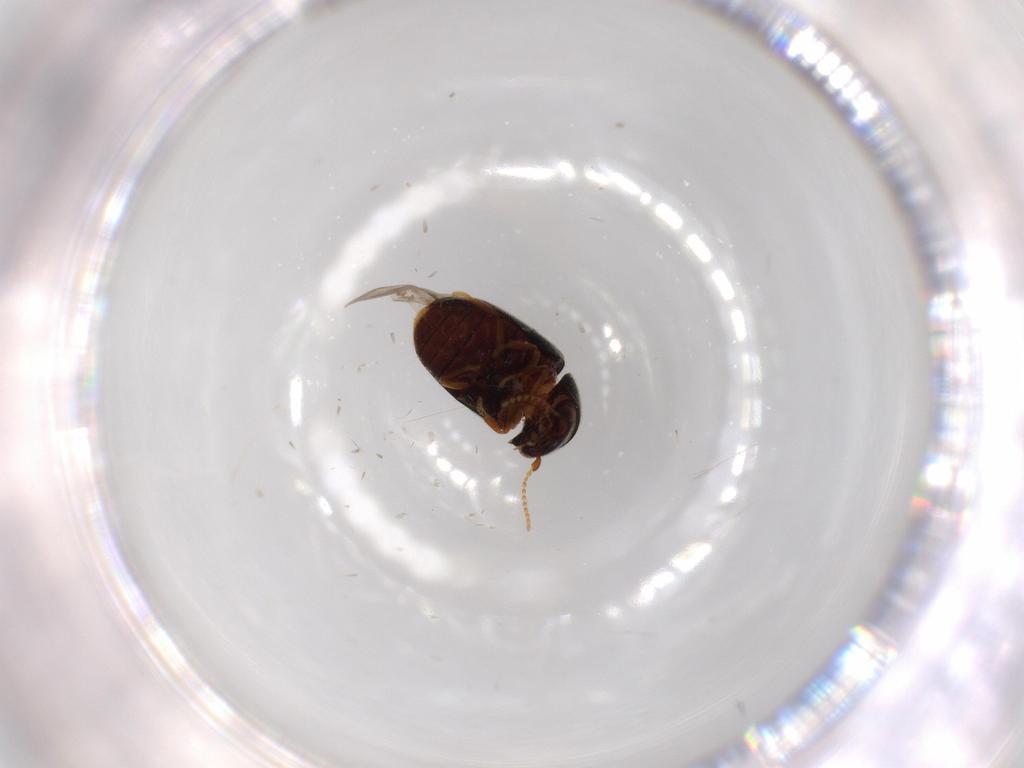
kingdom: Animalia
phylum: Arthropoda
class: Insecta
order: Coleoptera
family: Ptinidae
